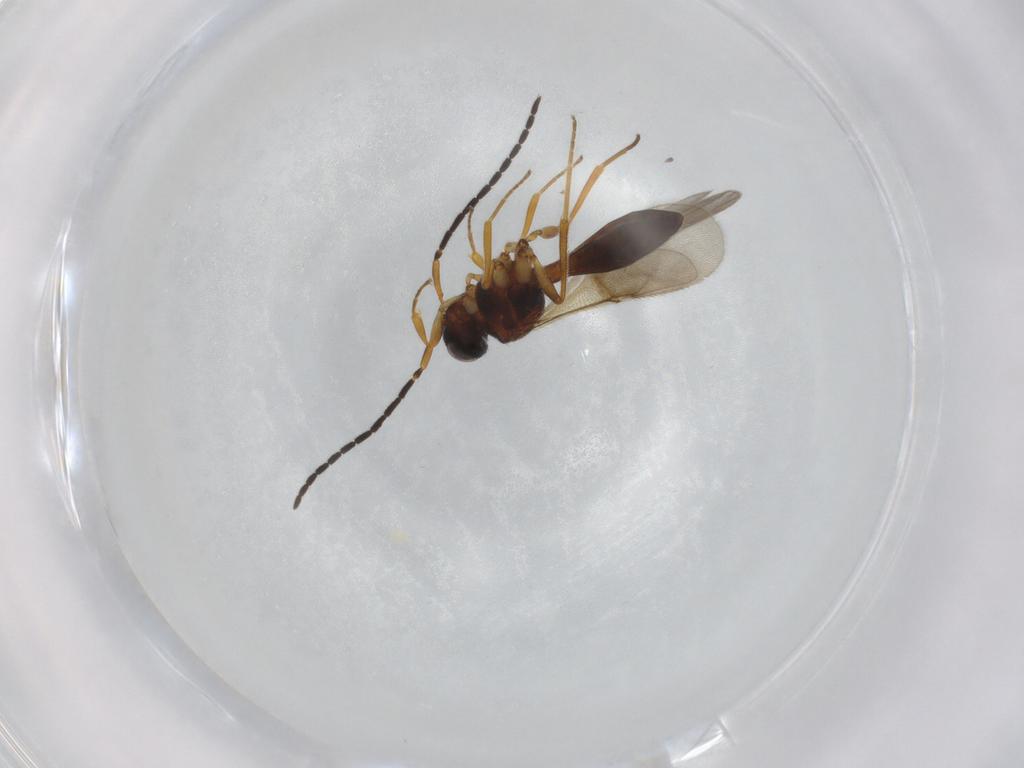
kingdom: Animalia
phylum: Arthropoda
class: Insecta
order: Hymenoptera
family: Scelionidae
